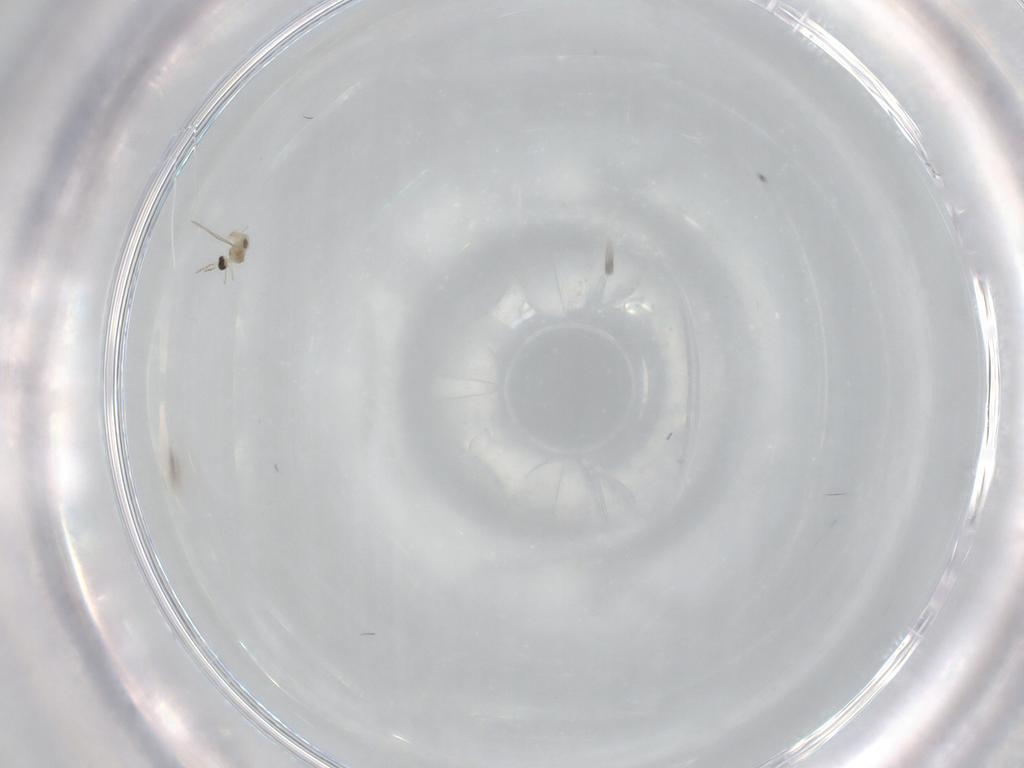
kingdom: Animalia
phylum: Arthropoda
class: Insecta
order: Diptera
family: Cecidomyiidae
